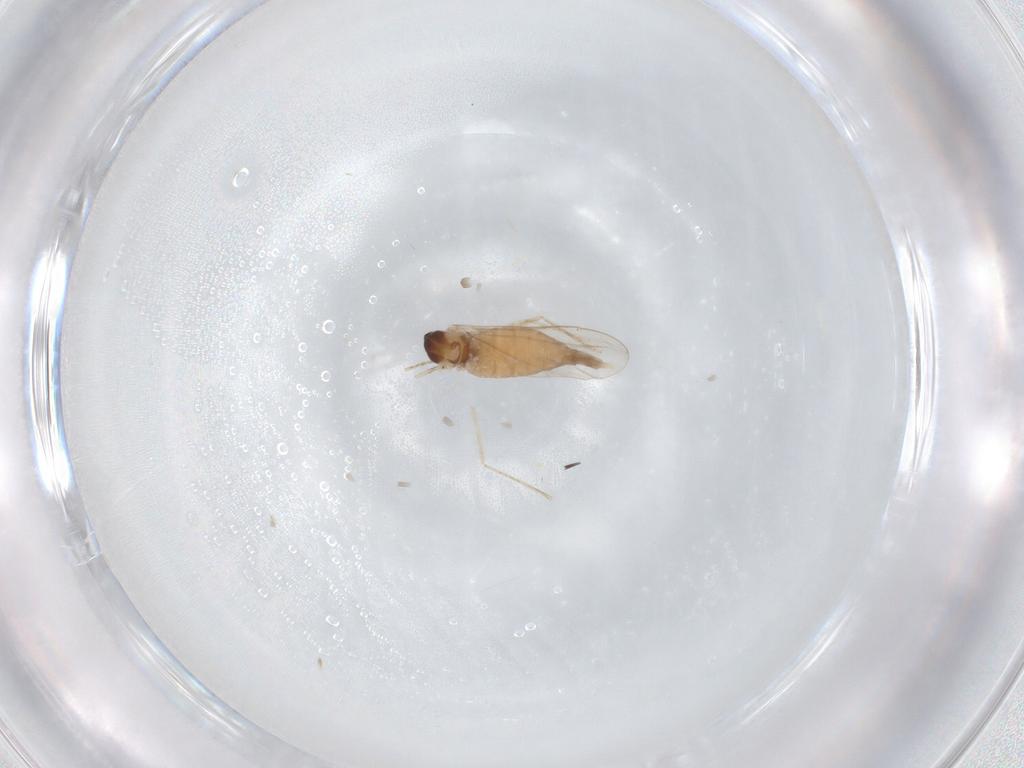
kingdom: Animalia
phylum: Arthropoda
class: Insecta
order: Diptera
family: Cecidomyiidae
